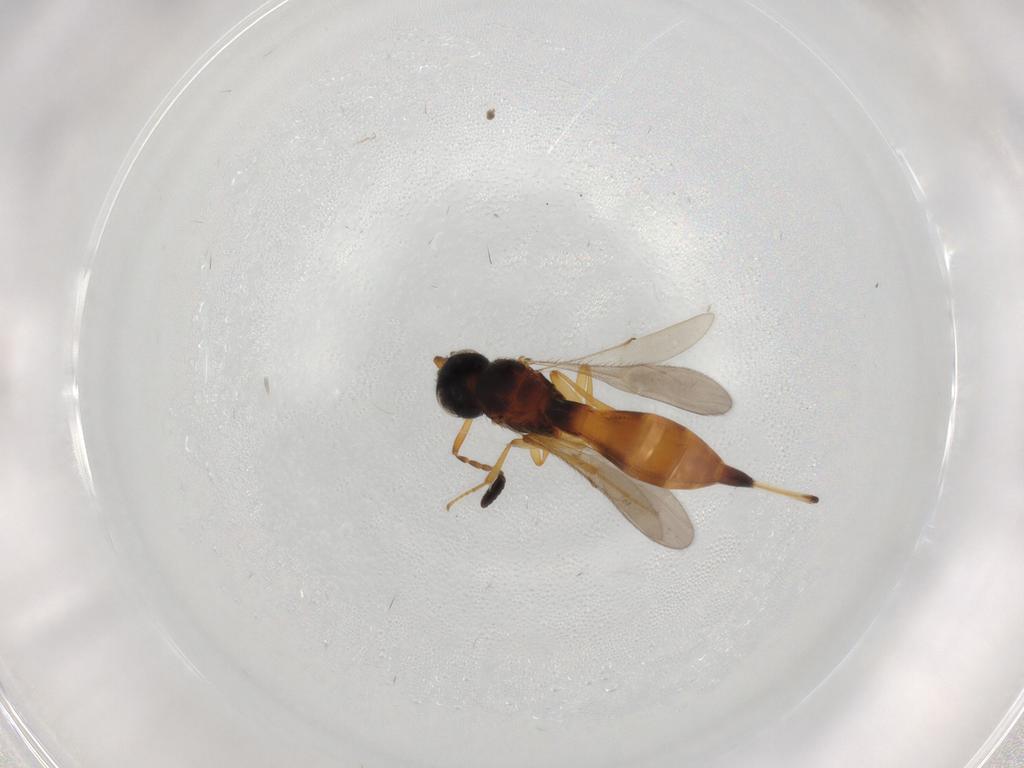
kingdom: Animalia
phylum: Arthropoda
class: Insecta
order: Hymenoptera
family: Scelionidae
